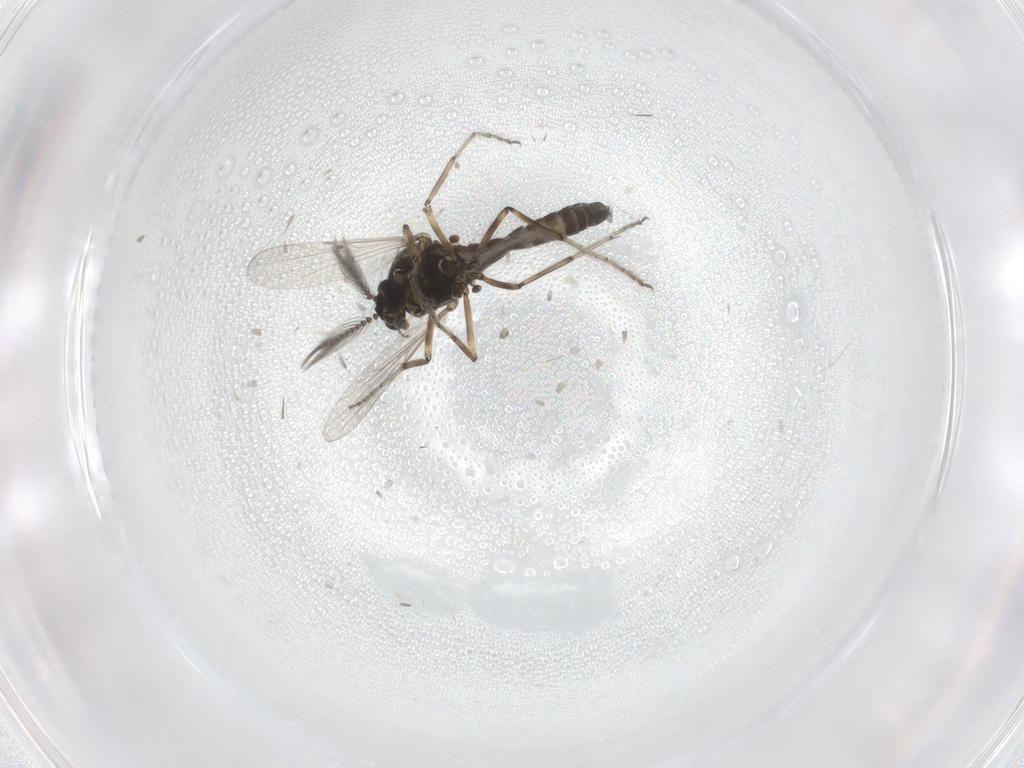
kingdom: Animalia
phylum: Arthropoda
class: Insecta
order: Diptera
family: Ceratopogonidae
